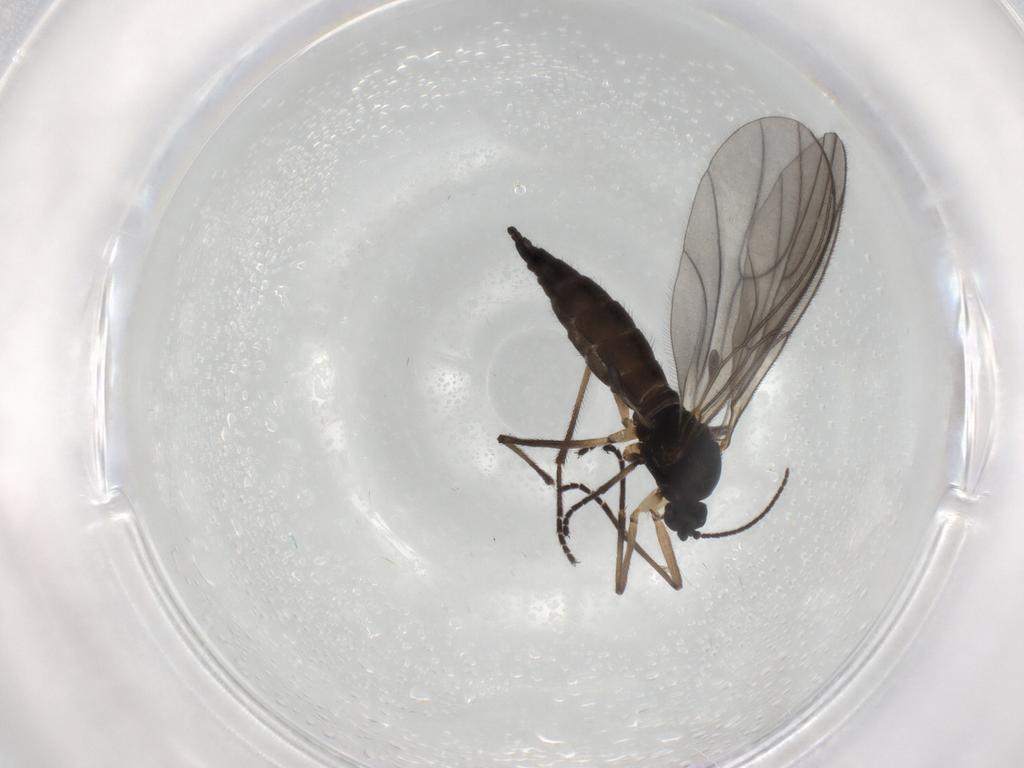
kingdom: Animalia
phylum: Arthropoda
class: Insecta
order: Diptera
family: Sciaridae
